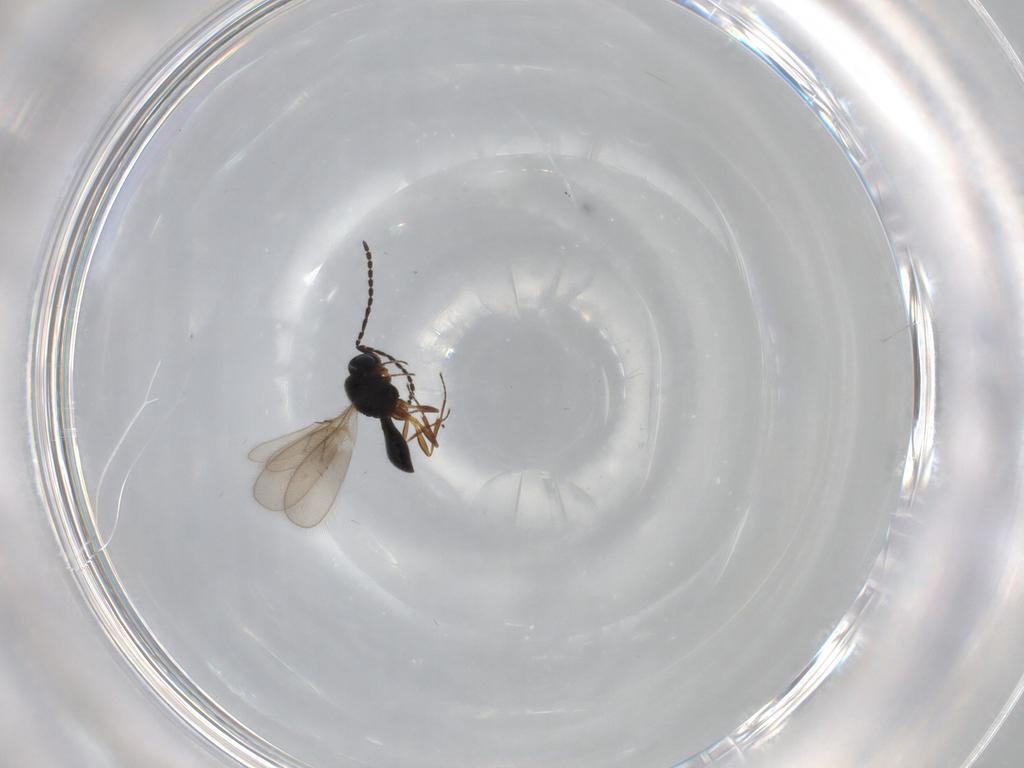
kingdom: Animalia
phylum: Arthropoda
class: Insecta
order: Hymenoptera
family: Scelionidae
